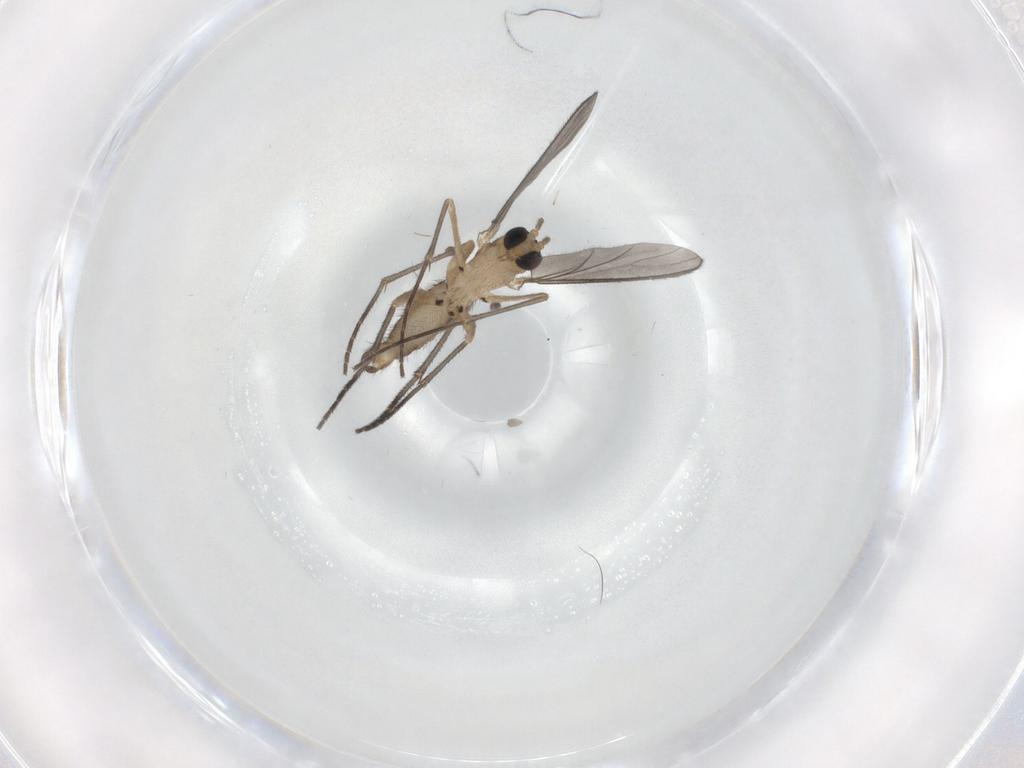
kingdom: Animalia
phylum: Arthropoda
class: Insecta
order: Diptera
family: Sciaridae
